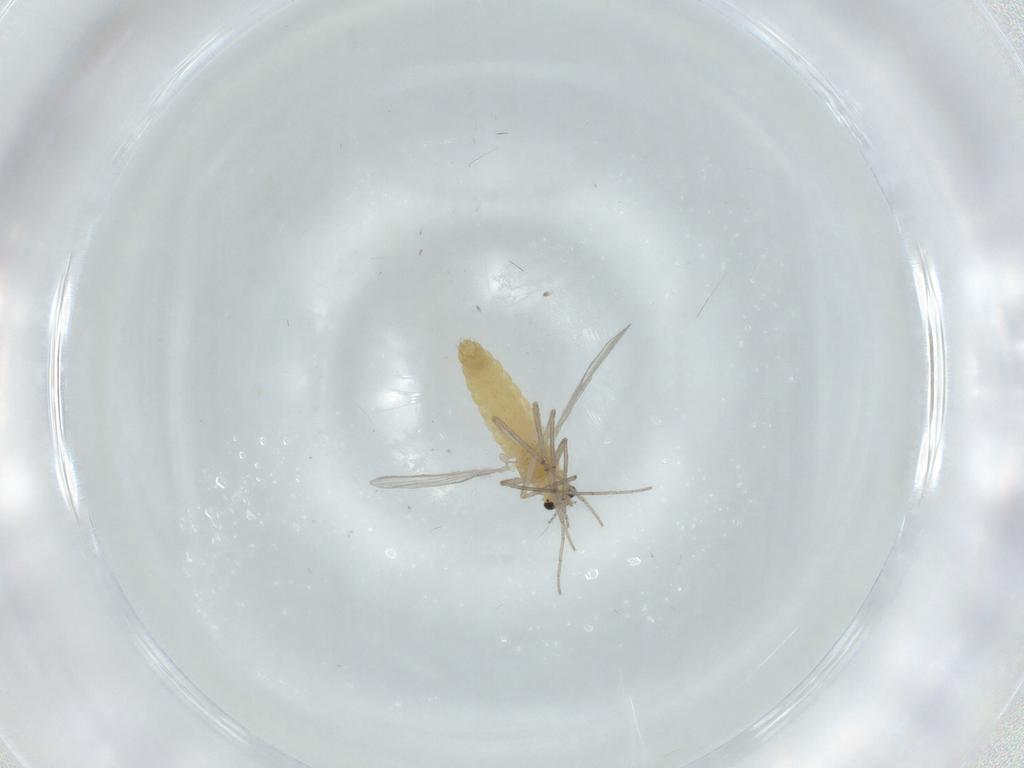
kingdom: Animalia
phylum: Arthropoda
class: Insecta
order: Diptera
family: Chironomidae
